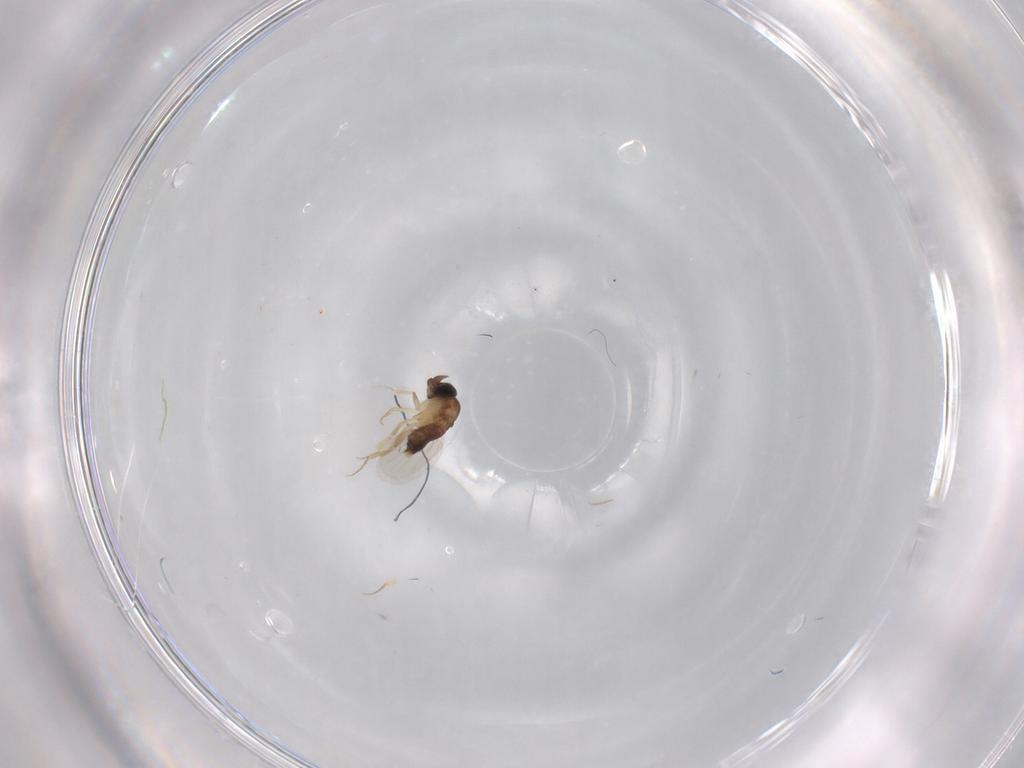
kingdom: Animalia
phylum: Arthropoda
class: Insecta
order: Diptera
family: Phoridae
